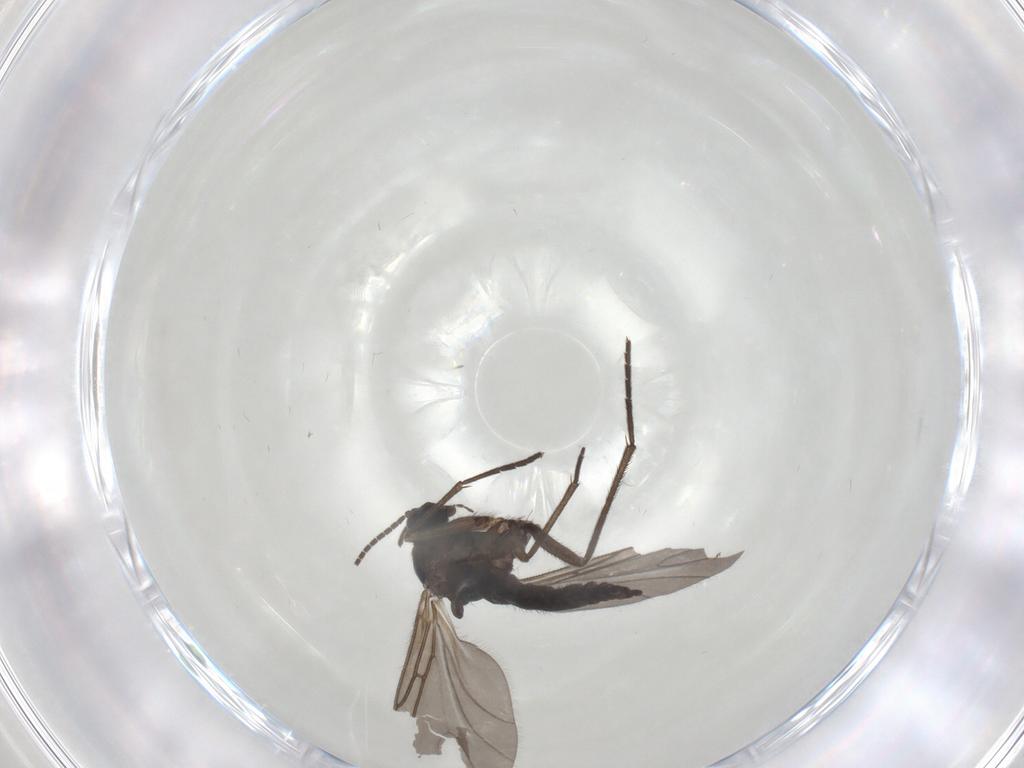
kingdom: Animalia
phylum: Arthropoda
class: Insecta
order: Diptera
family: Sciaridae
